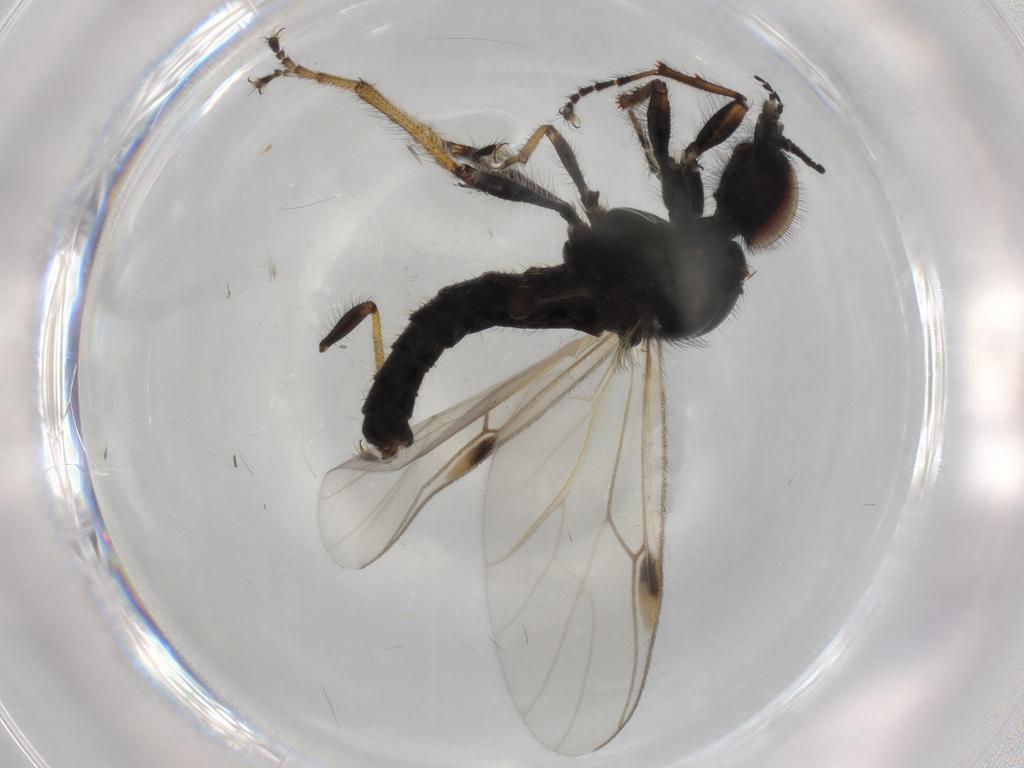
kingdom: Animalia
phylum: Arthropoda
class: Insecta
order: Diptera
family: Bibionidae
